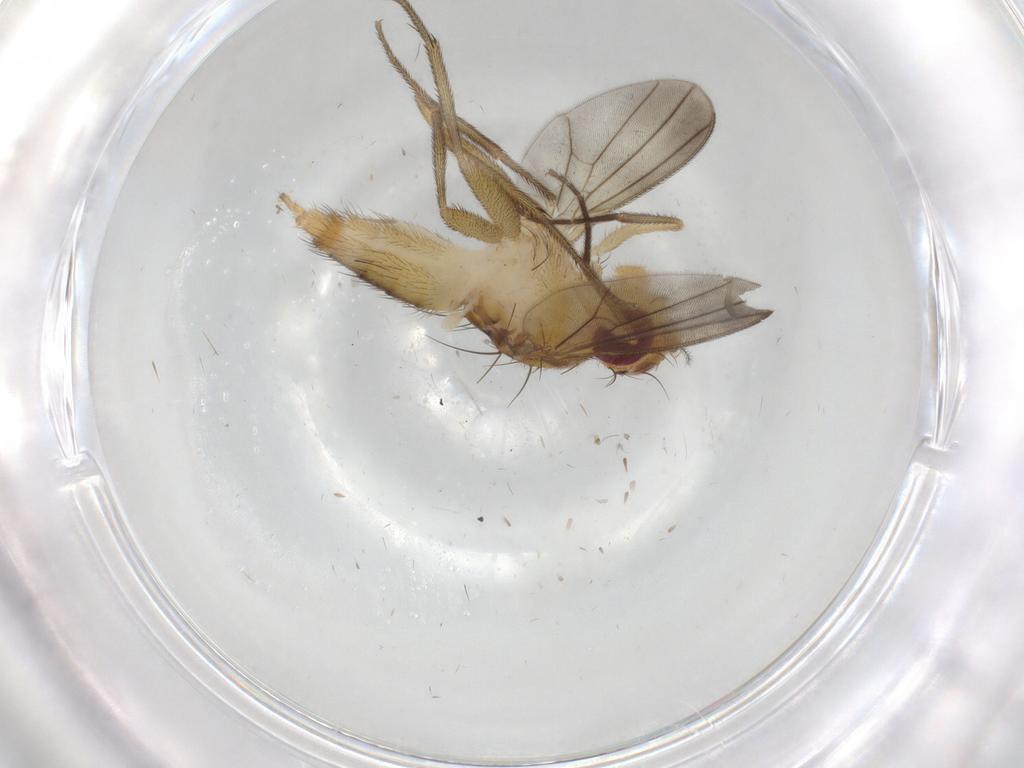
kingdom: Animalia
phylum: Arthropoda
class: Insecta
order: Diptera
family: Clusiidae
